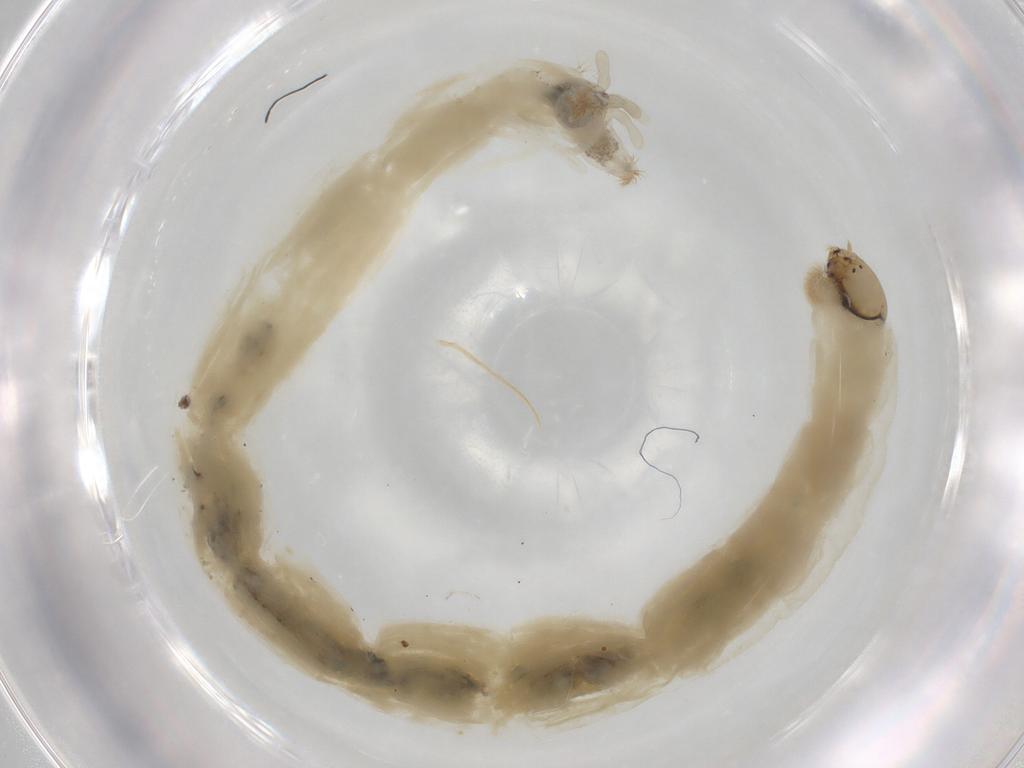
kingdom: Animalia
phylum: Arthropoda
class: Insecta
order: Diptera
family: Chironomidae
